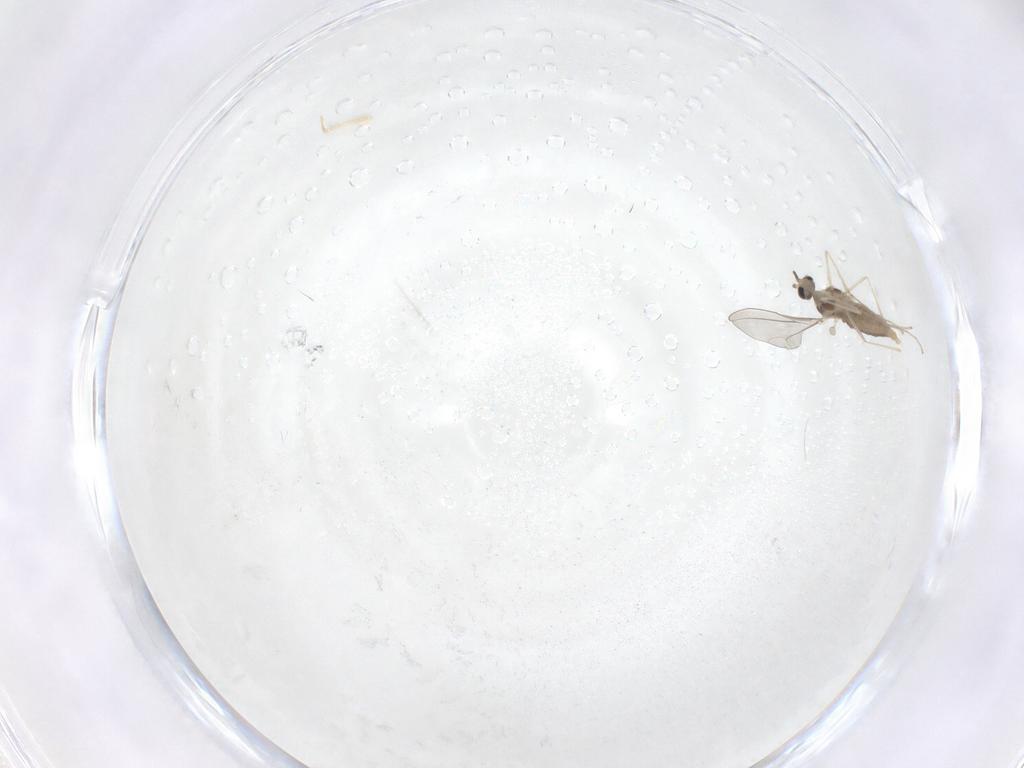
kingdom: Animalia
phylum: Arthropoda
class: Insecta
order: Diptera
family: Cecidomyiidae
